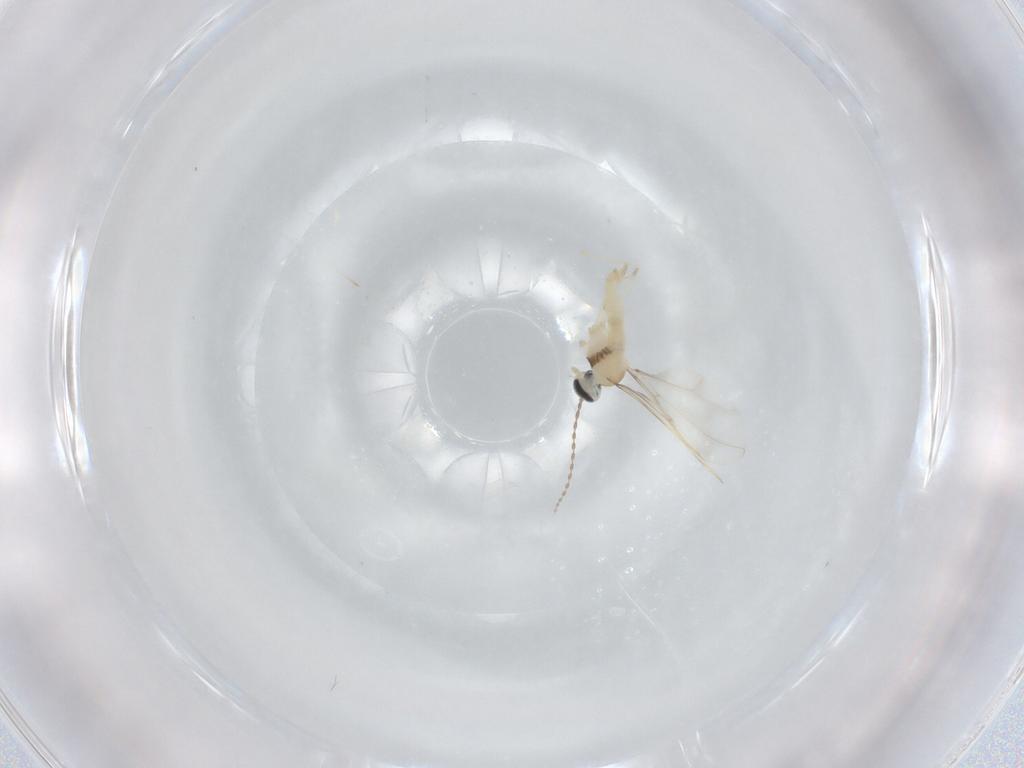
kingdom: Animalia
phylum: Arthropoda
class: Insecta
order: Diptera
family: Cecidomyiidae
